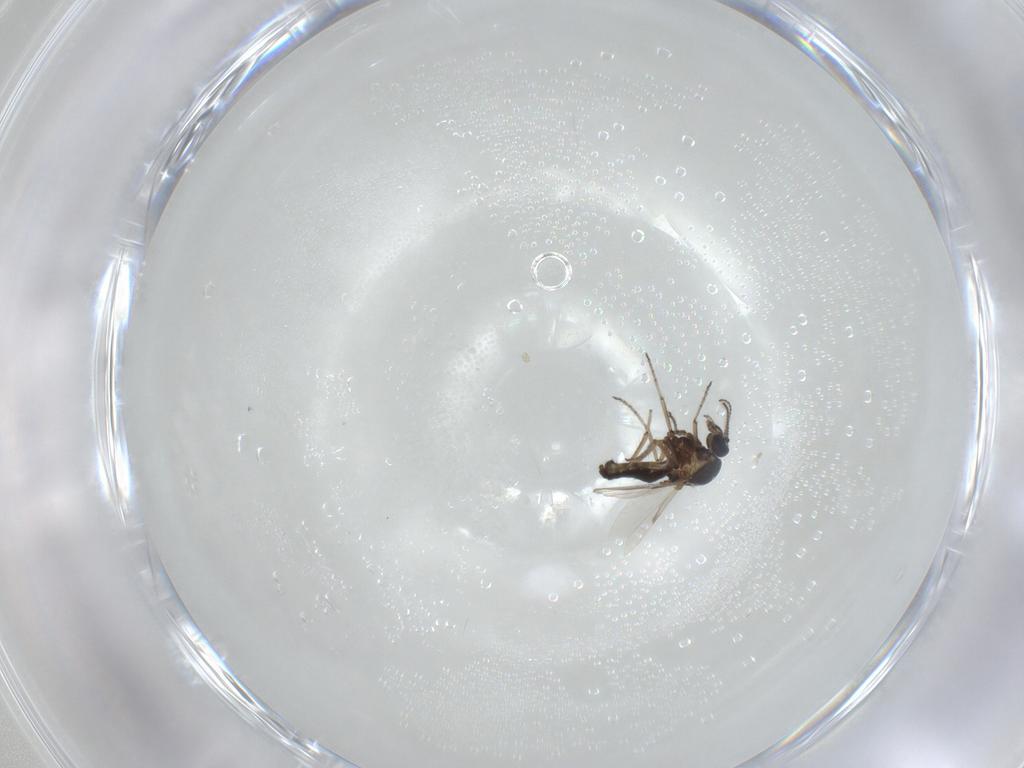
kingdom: Animalia
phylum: Arthropoda
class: Insecta
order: Diptera
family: Ceratopogonidae
